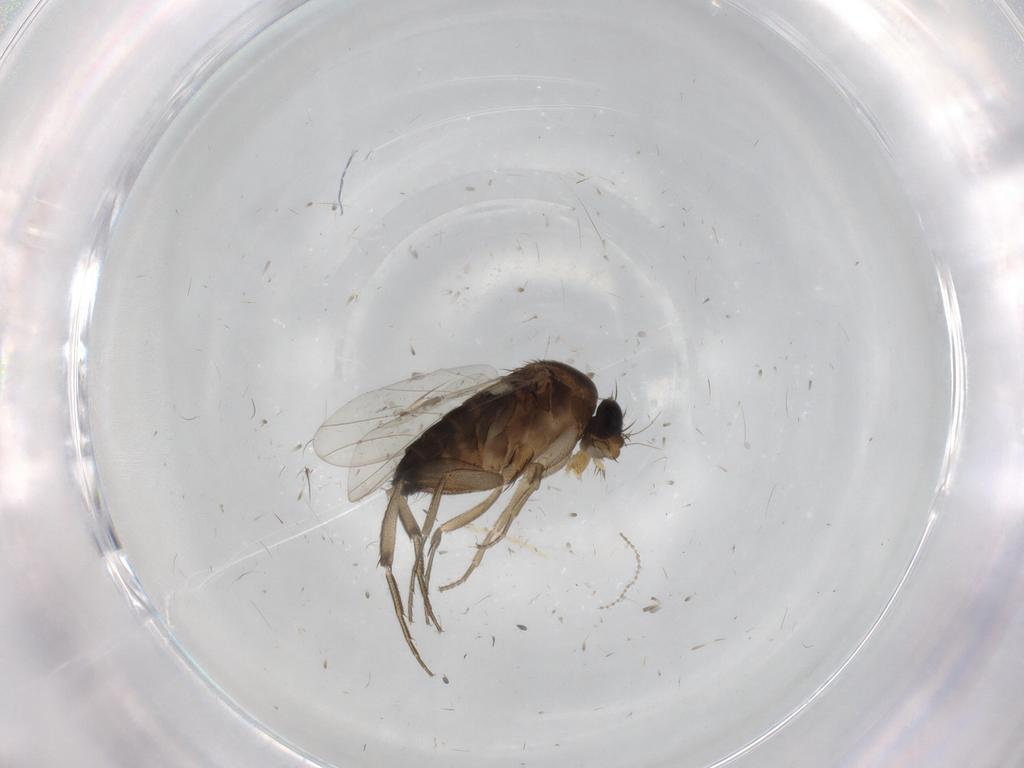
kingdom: Animalia
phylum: Arthropoda
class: Insecta
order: Diptera
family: Phoridae
